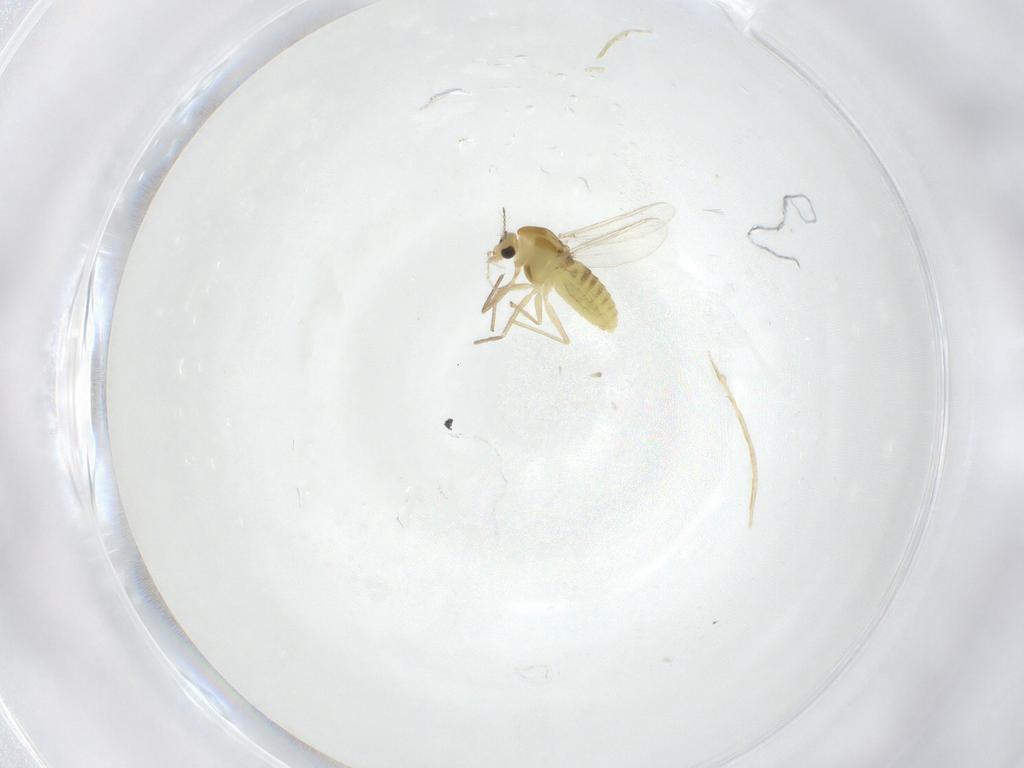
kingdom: Animalia
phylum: Arthropoda
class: Insecta
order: Diptera
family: Chironomidae
